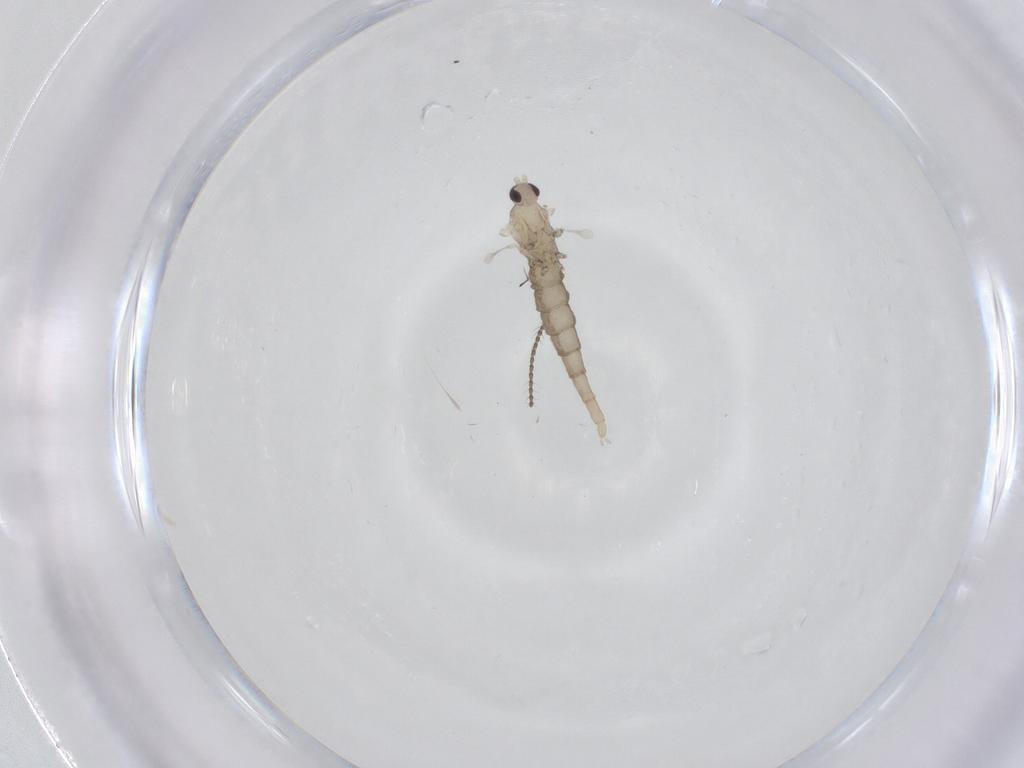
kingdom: Animalia
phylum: Arthropoda
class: Insecta
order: Diptera
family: Cecidomyiidae
